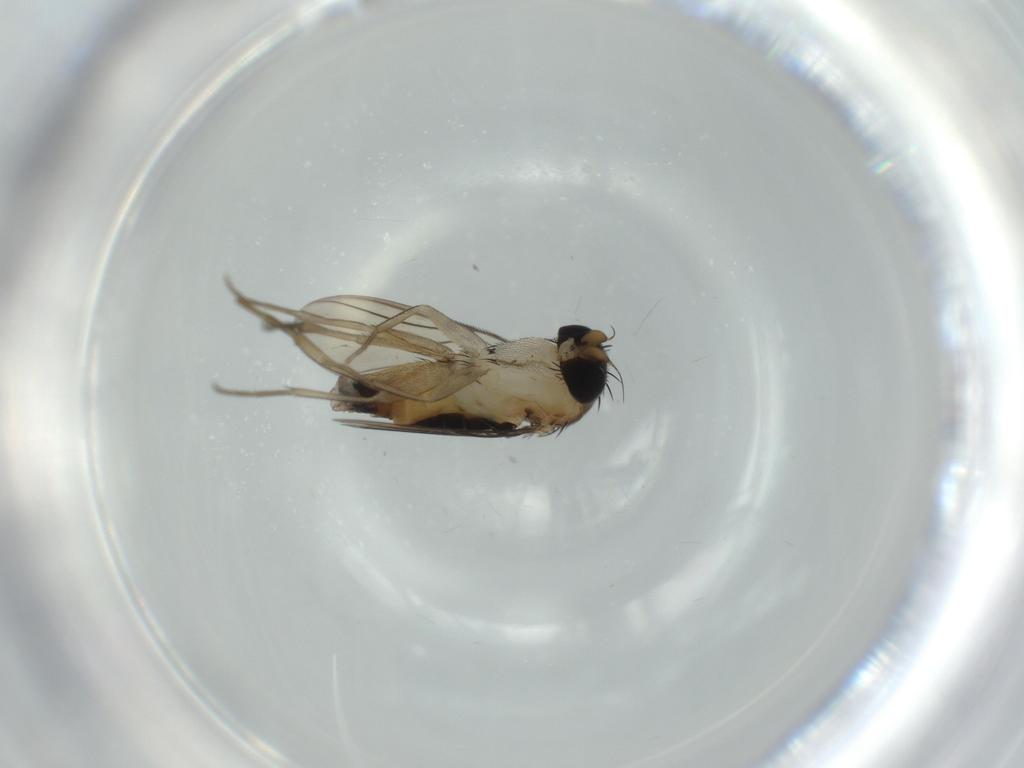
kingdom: Animalia
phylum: Arthropoda
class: Insecta
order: Diptera
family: Phoridae
